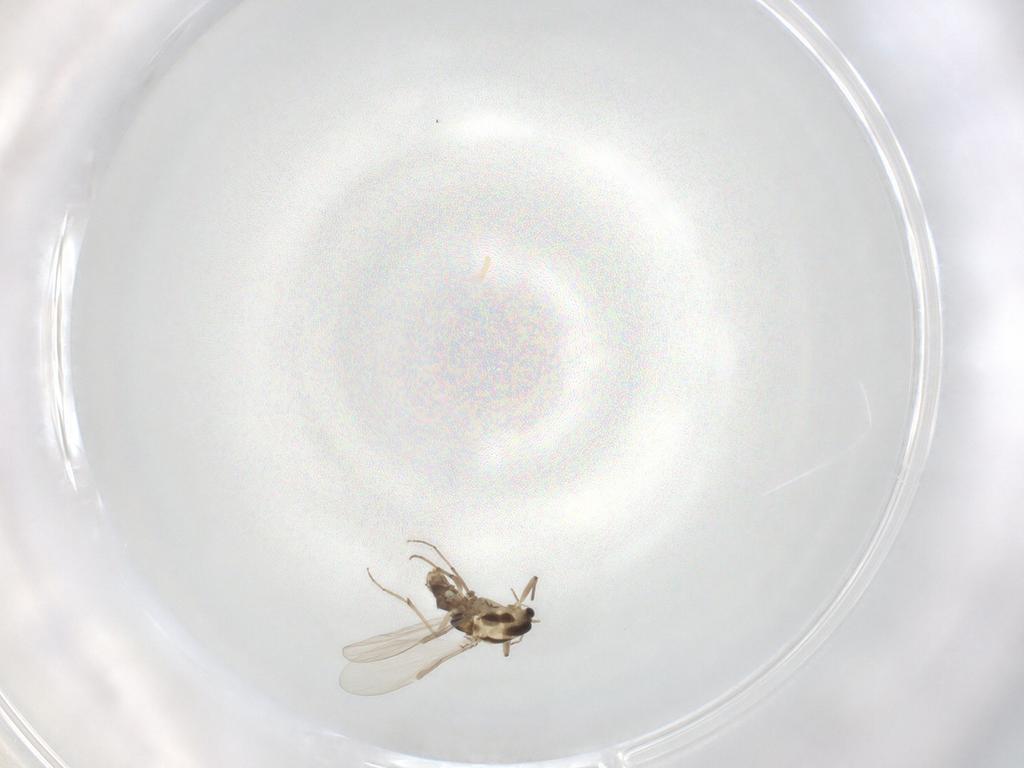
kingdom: Animalia
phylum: Arthropoda
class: Insecta
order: Diptera
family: Chironomidae
